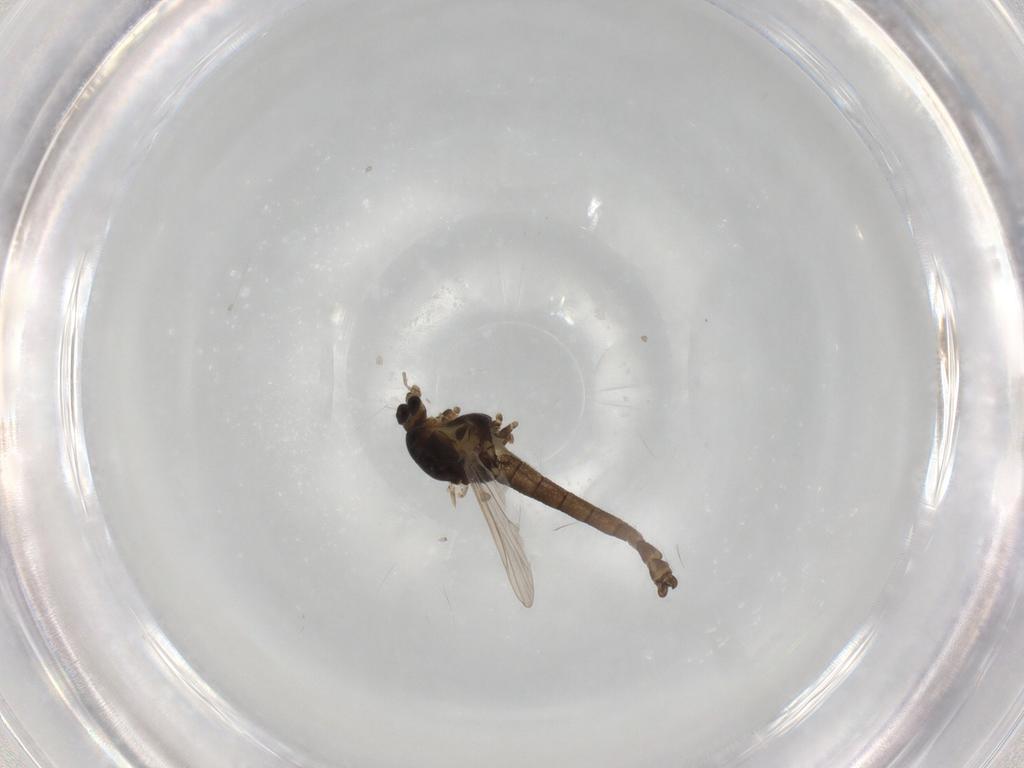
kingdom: Animalia
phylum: Arthropoda
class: Insecta
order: Diptera
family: Chironomidae
